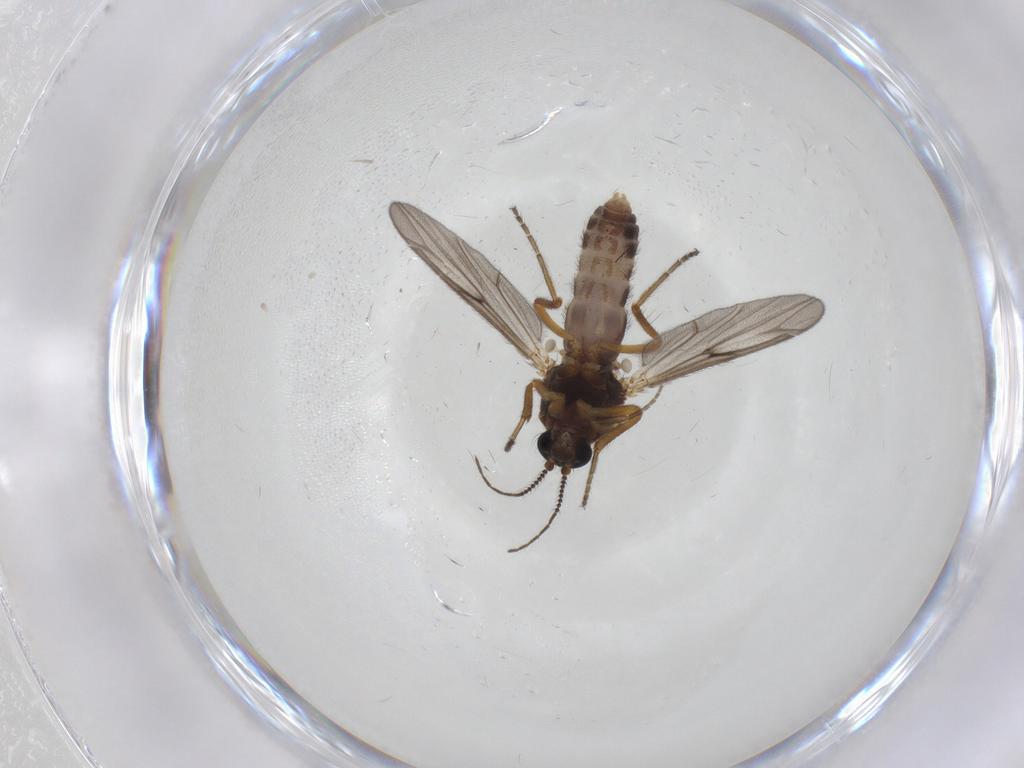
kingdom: Animalia
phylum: Arthropoda
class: Insecta
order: Diptera
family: Ceratopogonidae
